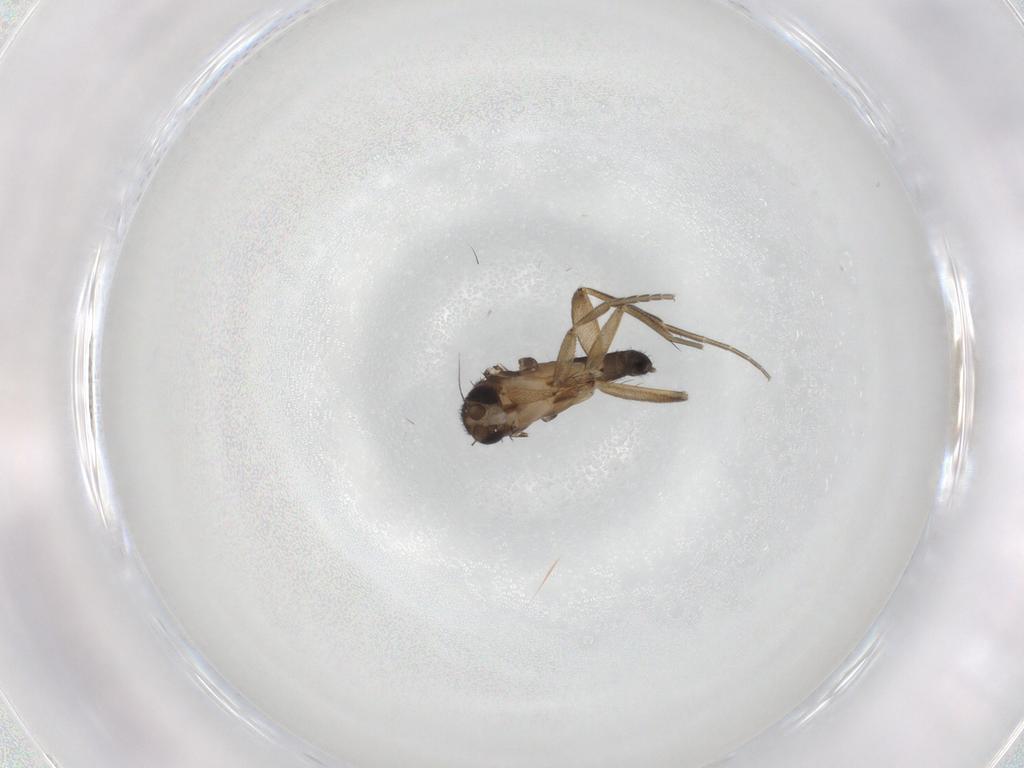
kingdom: Animalia
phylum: Arthropoda
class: Insecta
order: Diptera
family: Phoridae
